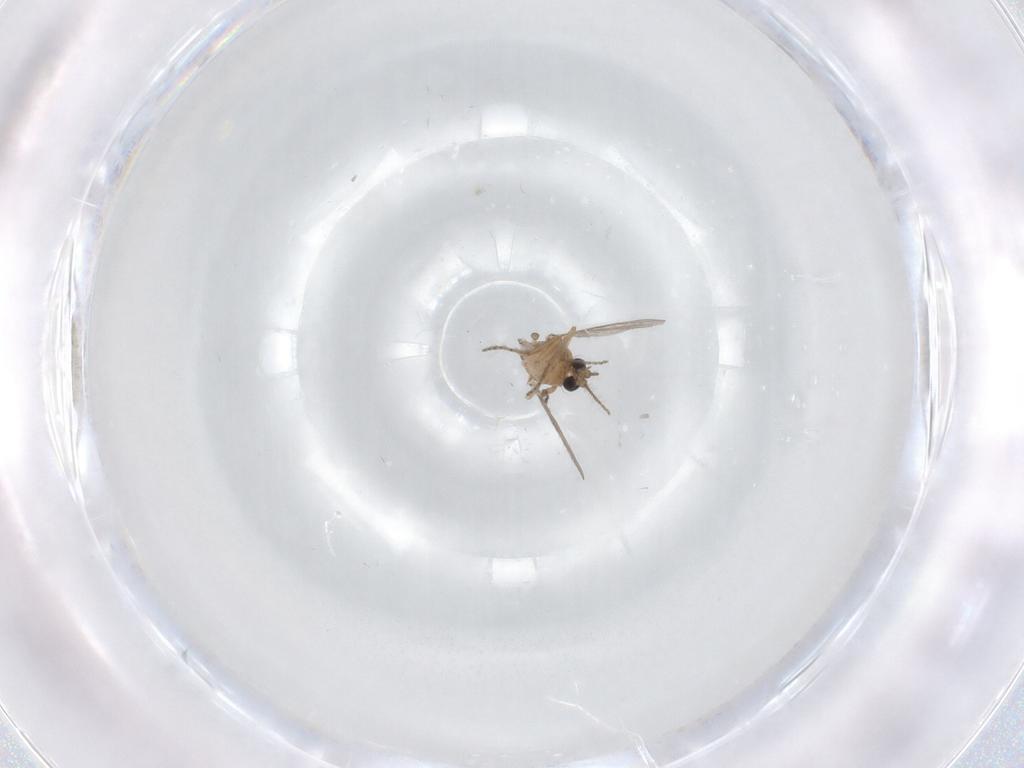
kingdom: Animalia
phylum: Arthropoda
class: Insecta
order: Diptera
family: Ceratopogonidae
